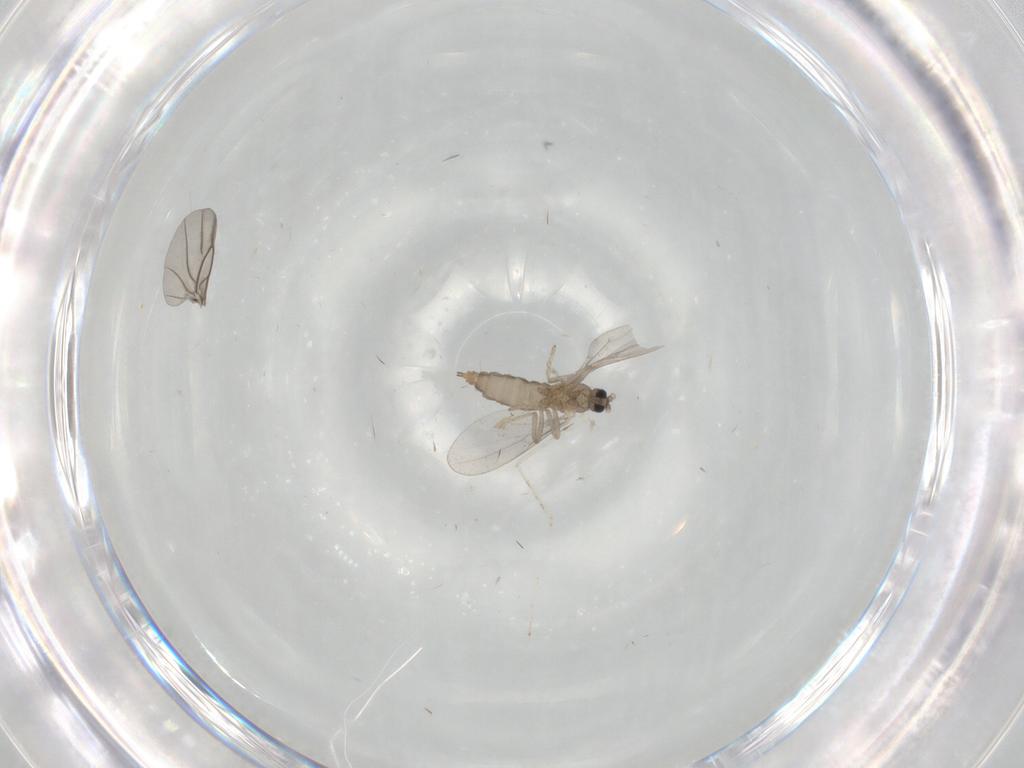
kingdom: Animalia
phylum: Arthropoda
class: Insecta
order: Diptera
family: Cecidomyiidae
